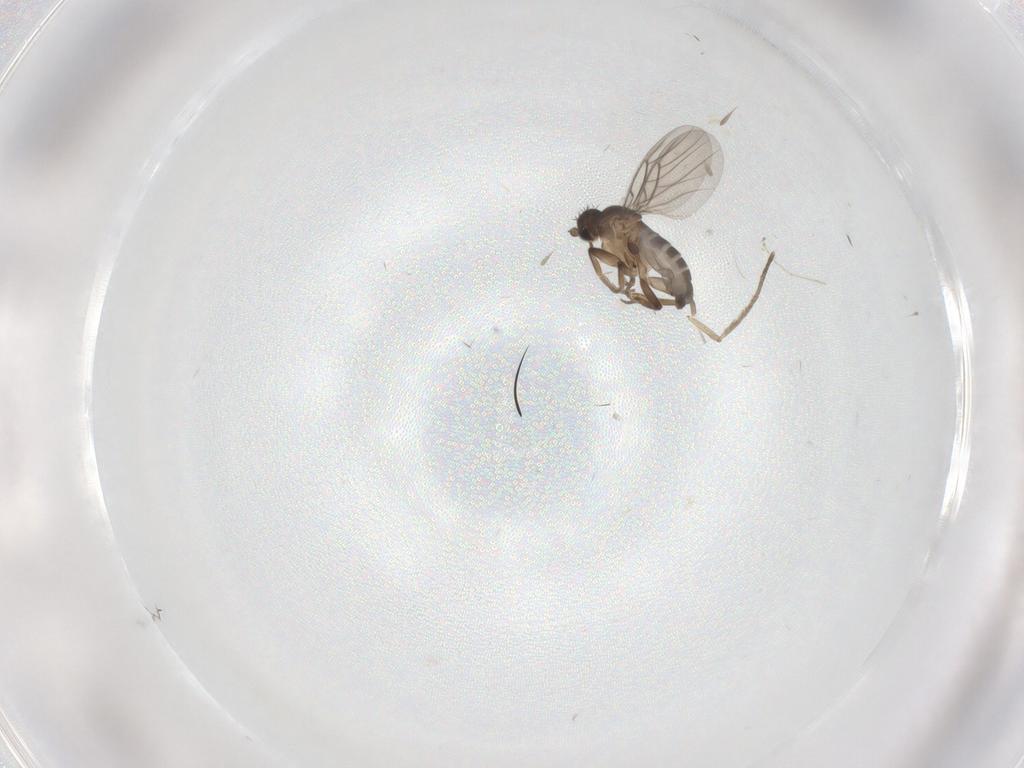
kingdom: Animalia
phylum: Arthropoda
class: Insecta
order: Diptera
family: Phoridae
